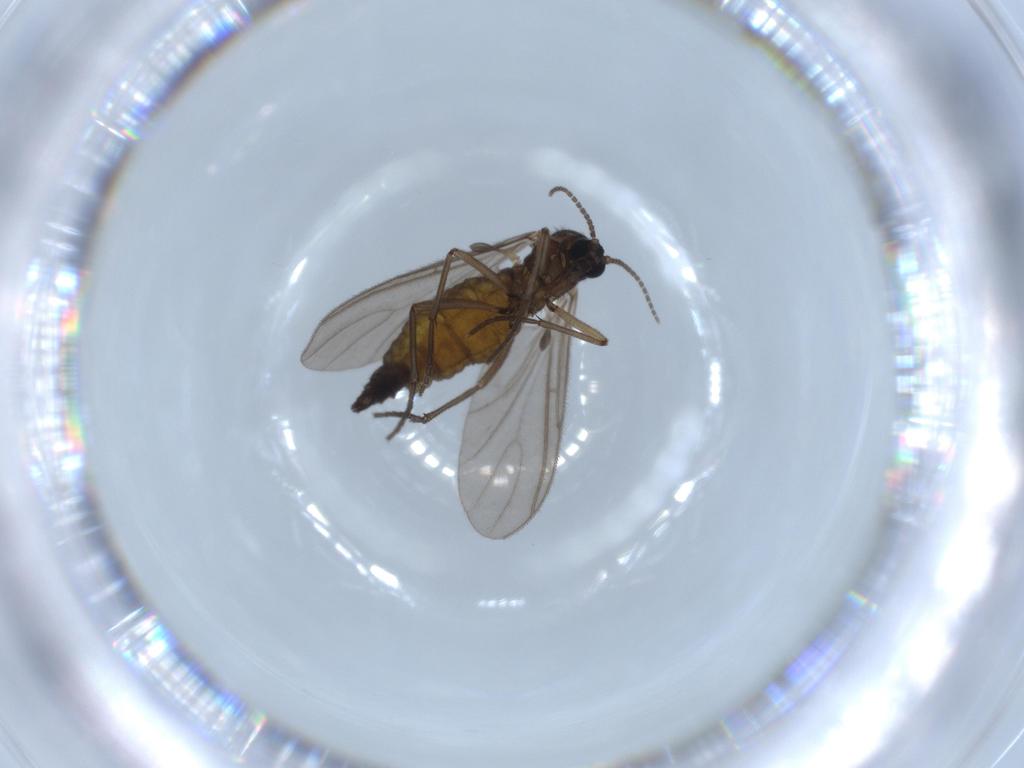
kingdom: Animalia
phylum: Arthropoda
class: Insecta
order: Diptera
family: Sciaridae
